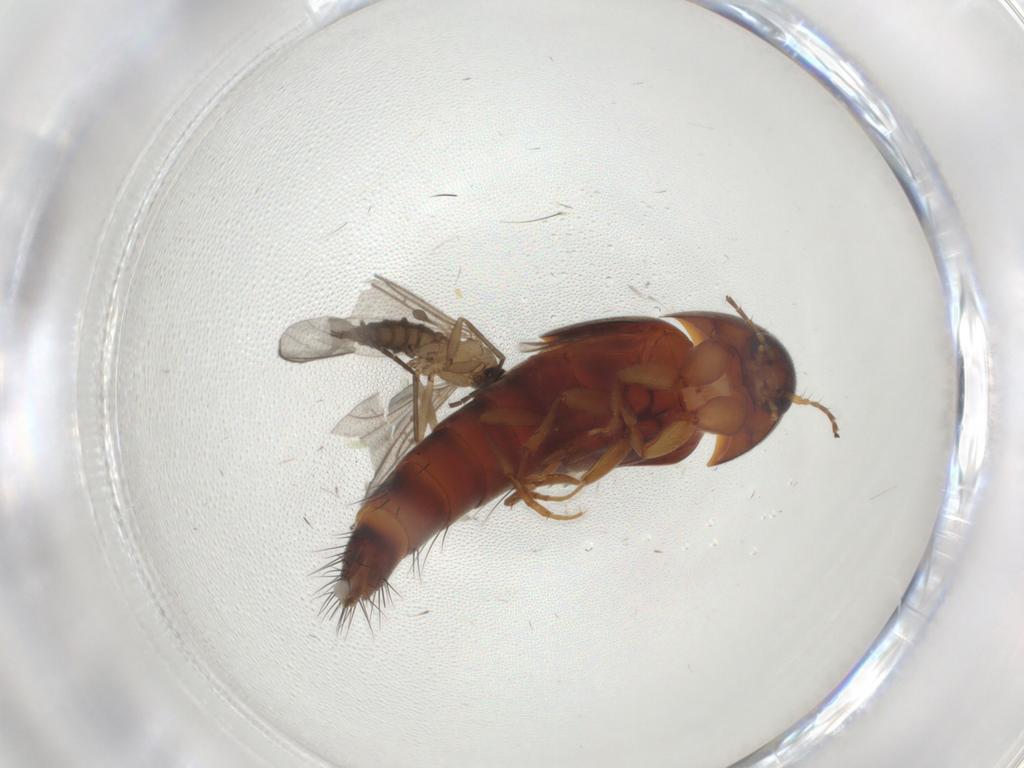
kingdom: Animalia
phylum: Arthropoda
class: Insecta
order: Diptera
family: Sciaridae
